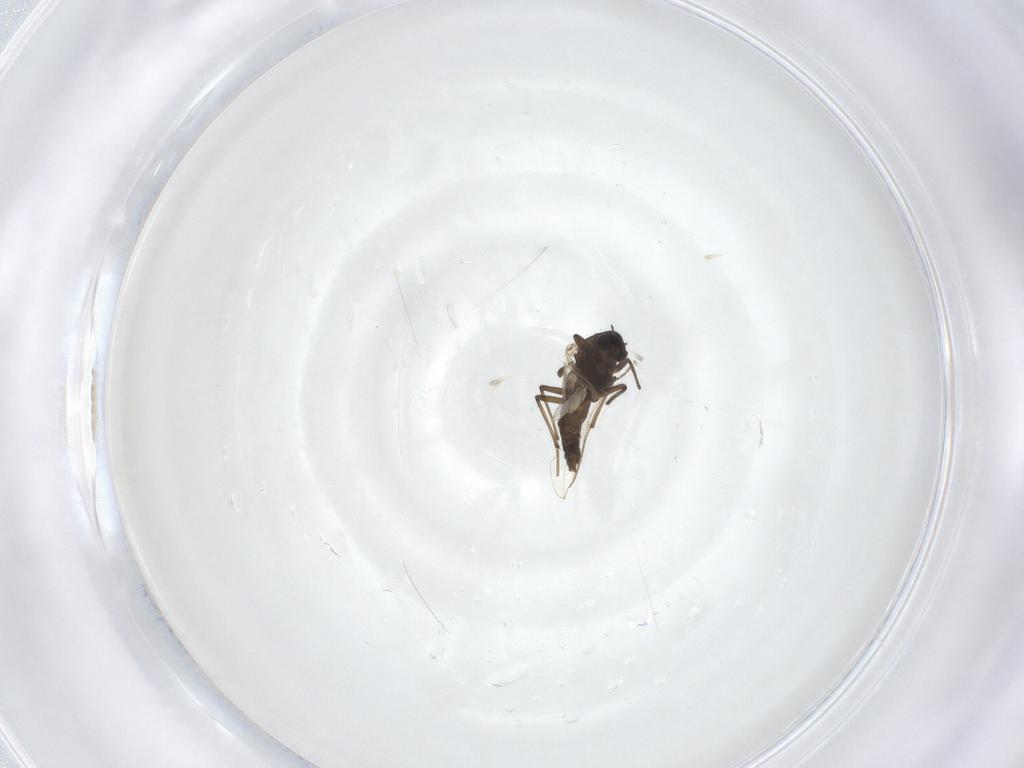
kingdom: Animalia
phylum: Arthropoda
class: Insecta
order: Diptera
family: Chironomidae
